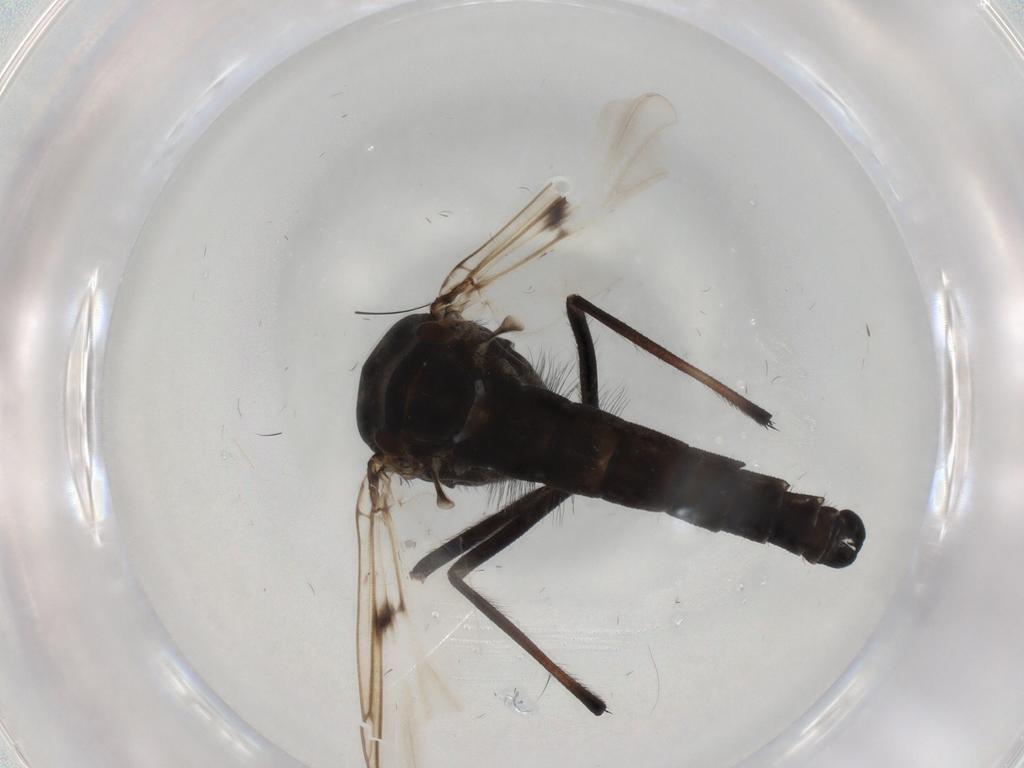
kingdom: Animalia
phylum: Arthropoda
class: Insecta
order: Diptera
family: Chironomidae
